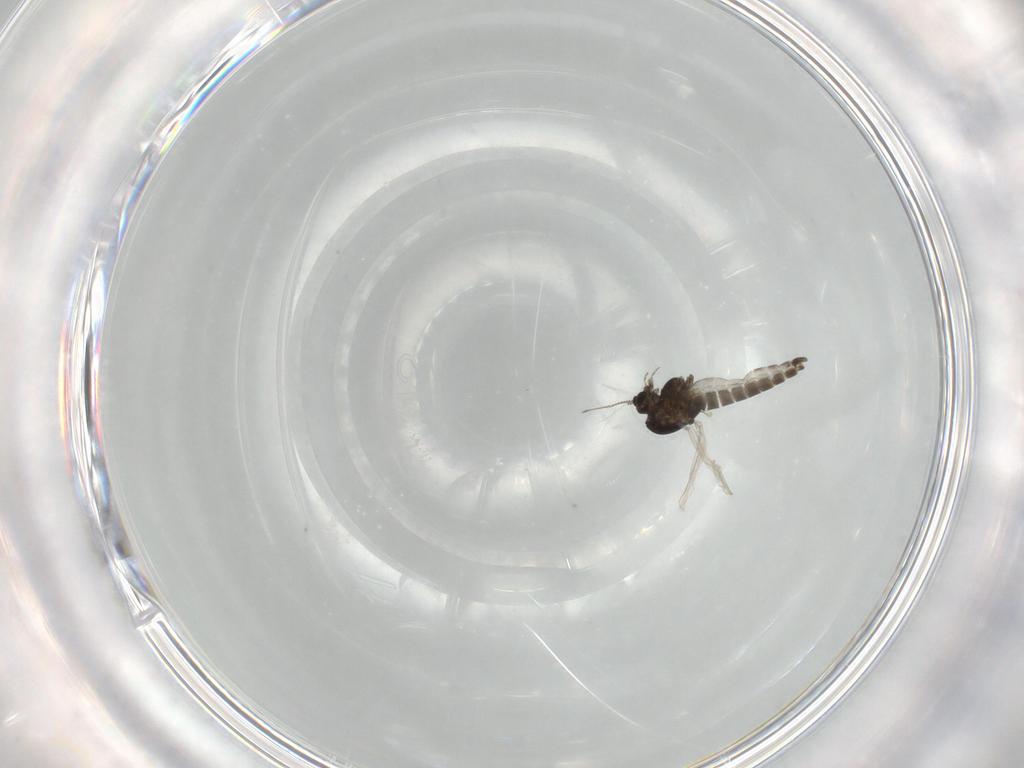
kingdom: Animalia
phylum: Arthropoda
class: Insecta
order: Diptera
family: Chironomidae
